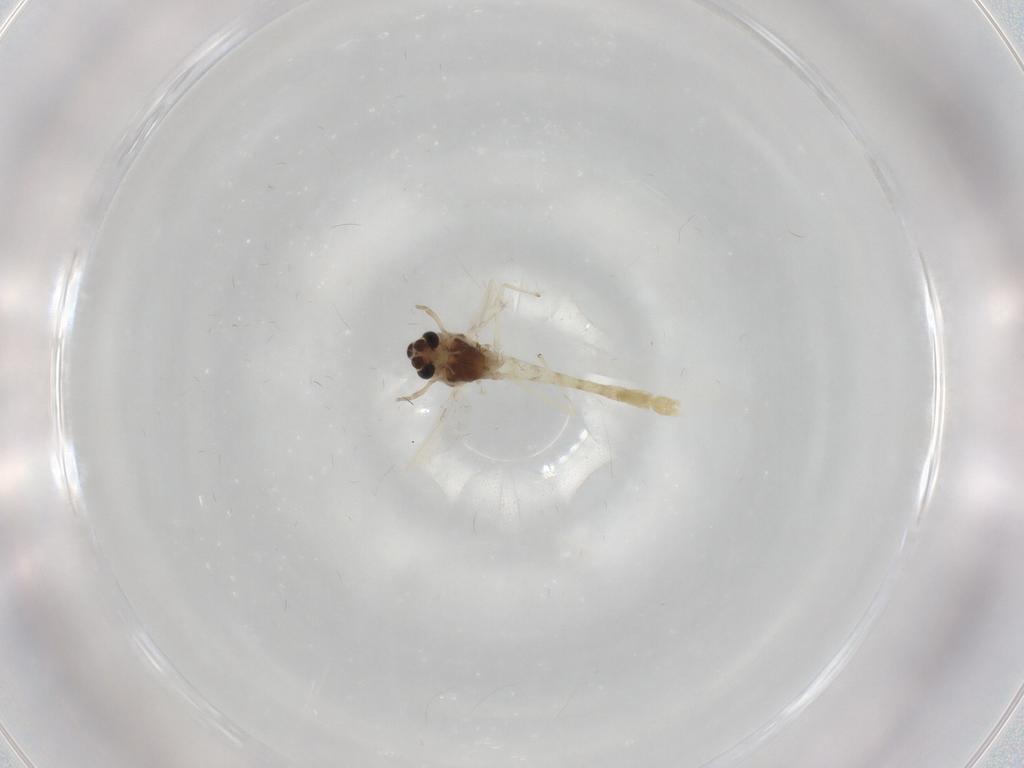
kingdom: Animalia
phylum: Arthropoda
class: Insecta
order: Diptera
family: Chironomidae
